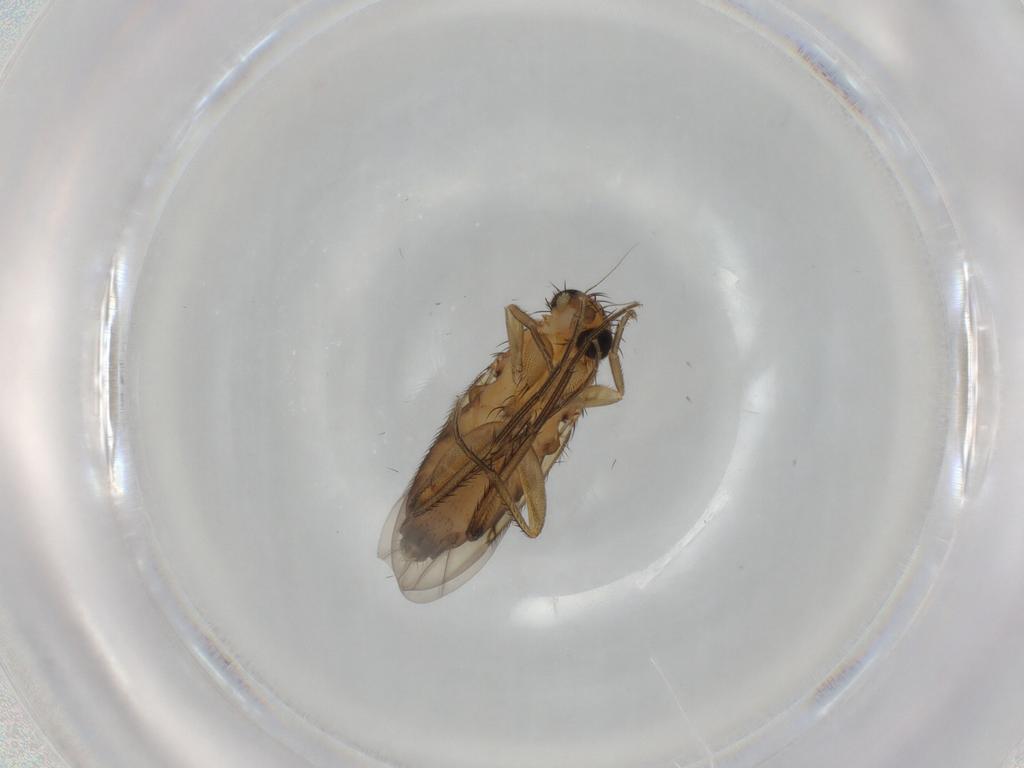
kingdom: Animalia
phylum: Arthropoda
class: Insecta
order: Diptera
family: Phoridae
